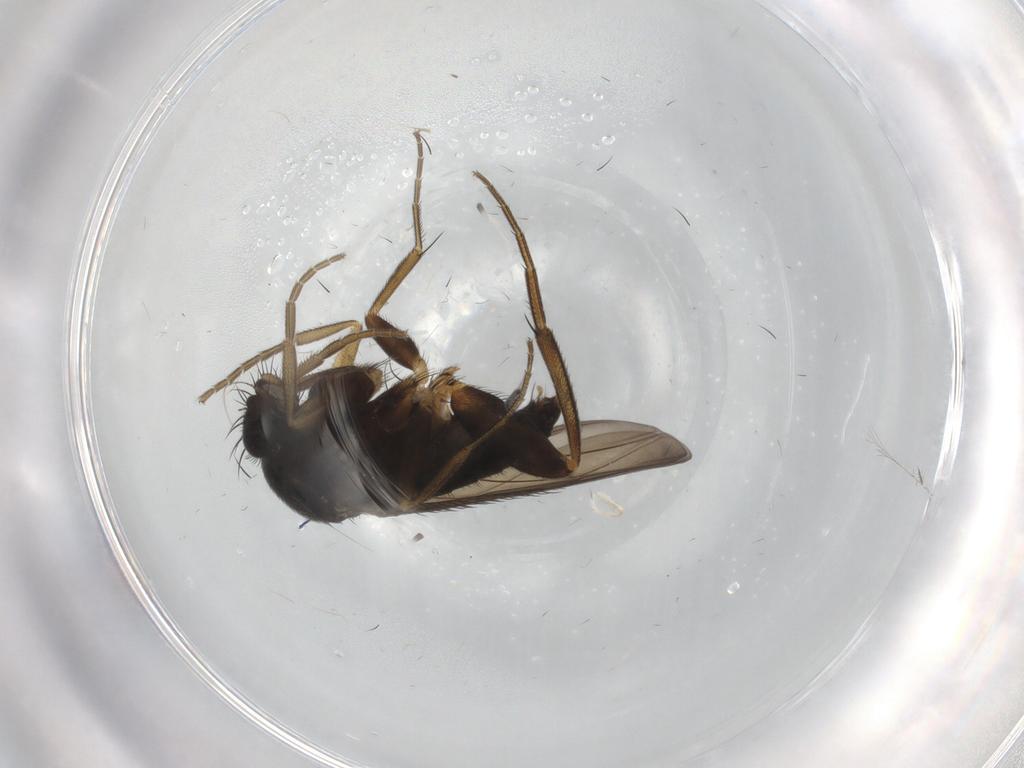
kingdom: Animalia
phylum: Arthropoda
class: Insecta
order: Diptera
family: Phoridae
